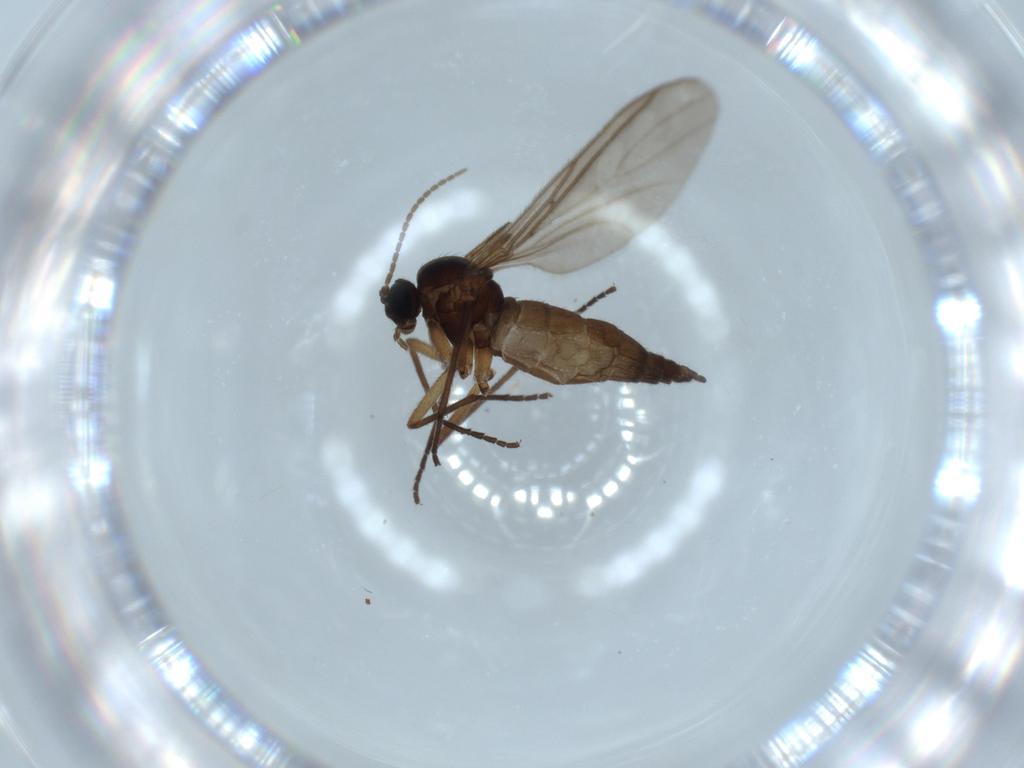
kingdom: Animalia
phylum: Arthropoda
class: Insecta
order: Diptera
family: Sciaridae
